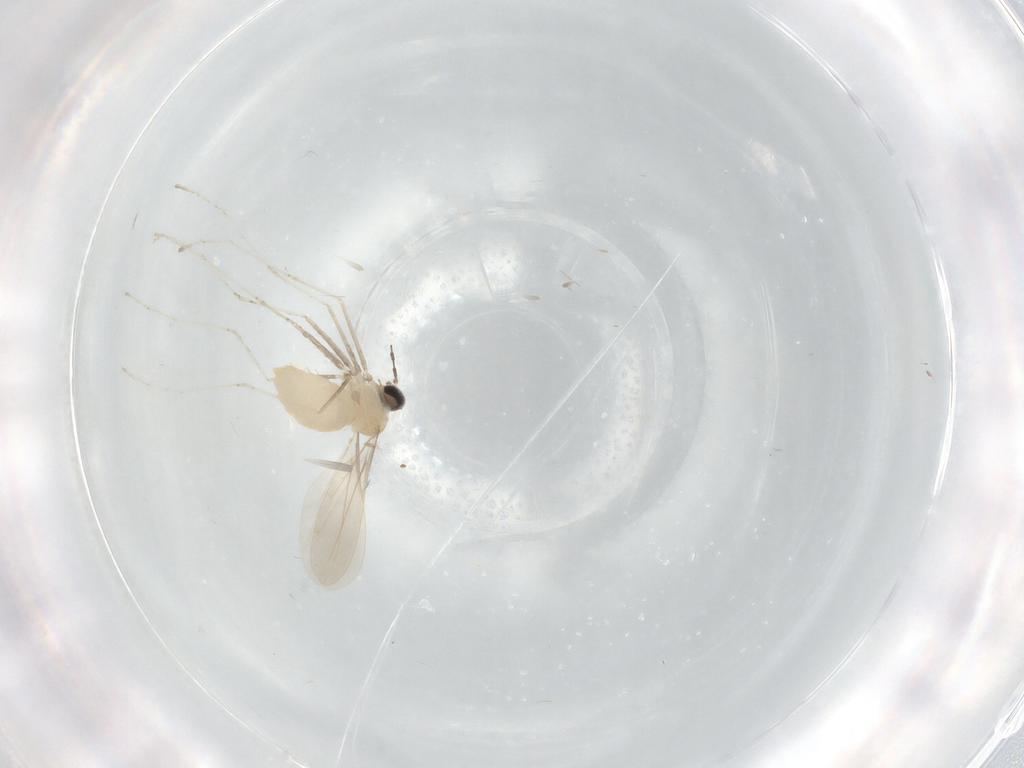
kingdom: Animalia
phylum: Arthropoda
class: Insecta
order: Diptera
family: Cecidomyiidae
